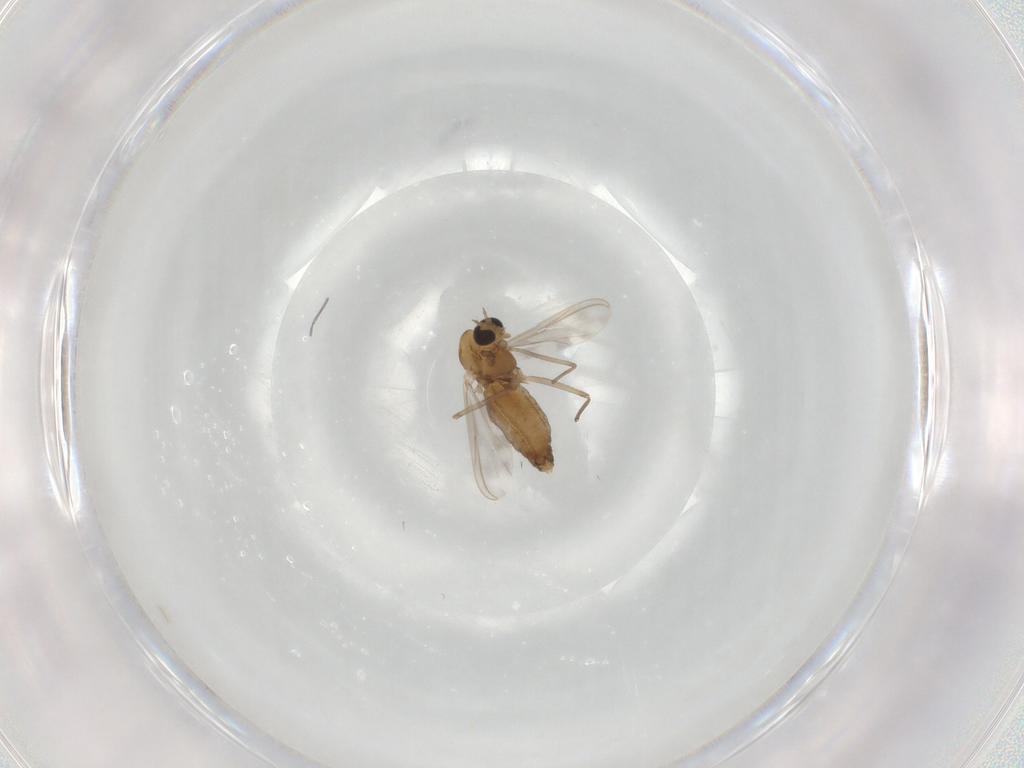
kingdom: Animalia
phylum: Arthropoda
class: Insecta
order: Diptera
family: Chironomidae
